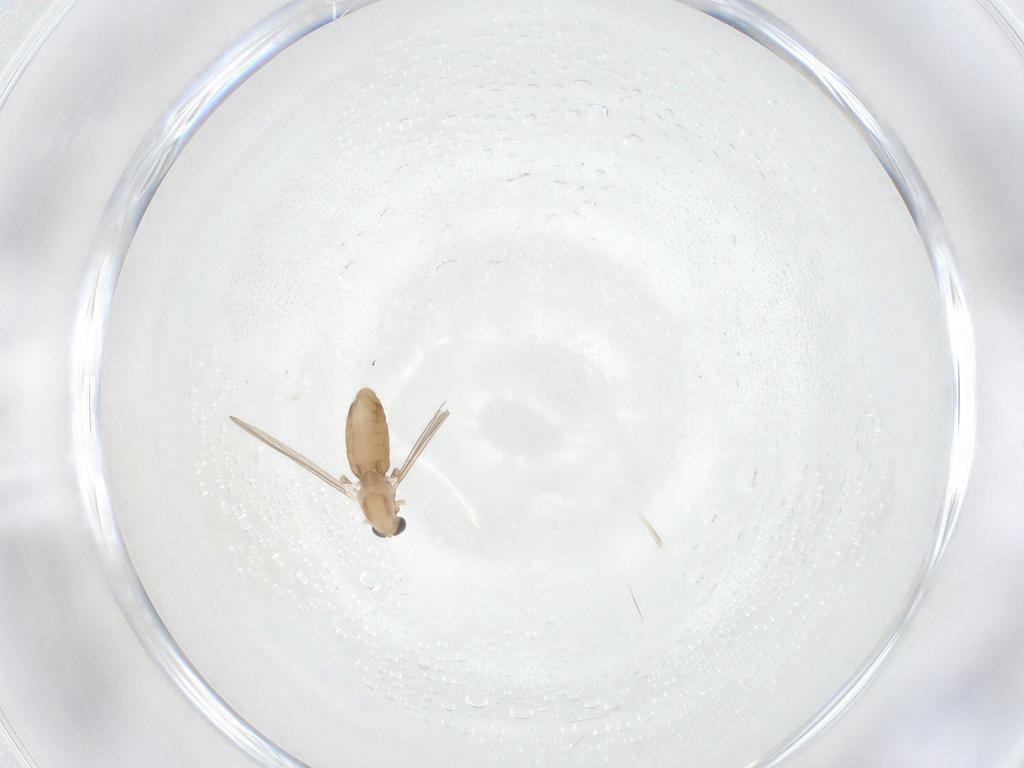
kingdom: Animalia
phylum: Arthropoda
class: Insecta
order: Diptera
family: Chironomidae
